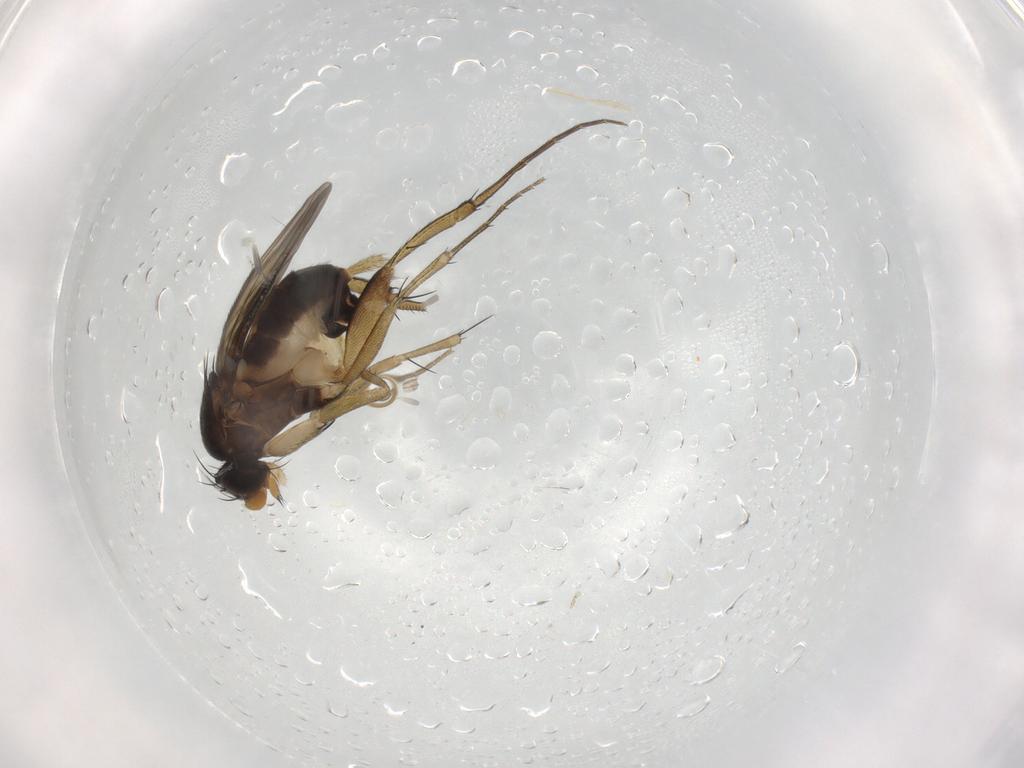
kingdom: Animalia
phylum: Arthropoda
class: Insecta
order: Diptera
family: Phoridae
